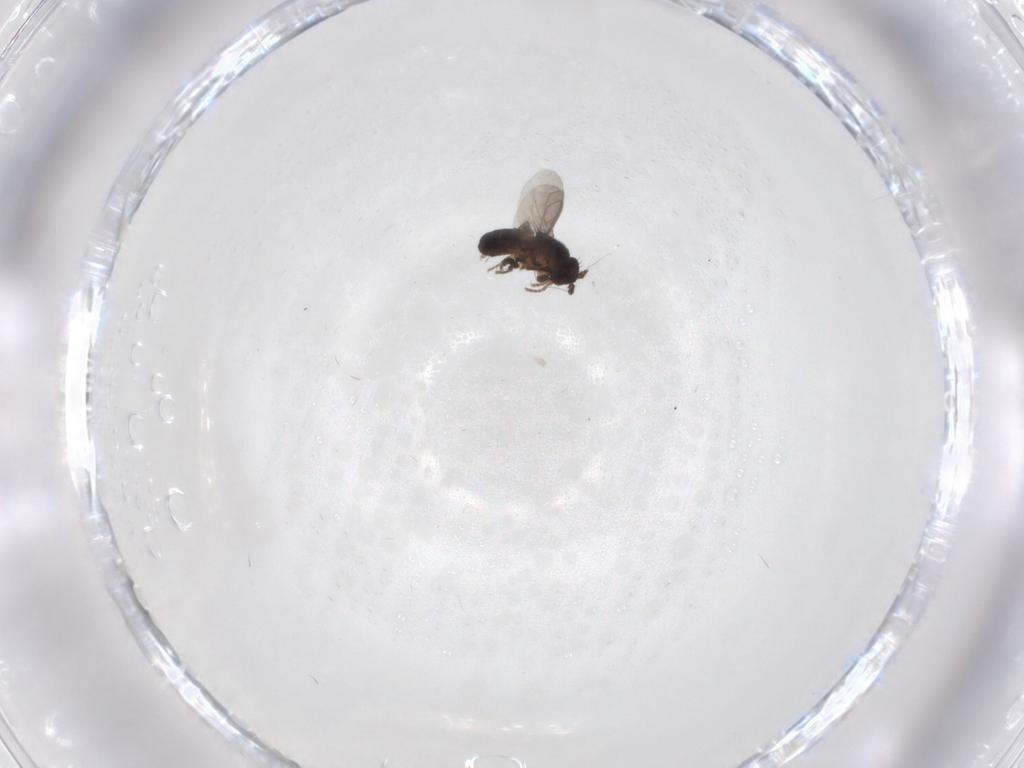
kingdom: Animalia
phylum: Arthropoda
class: Insecta
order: Diptera
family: Sphaeroceridae
